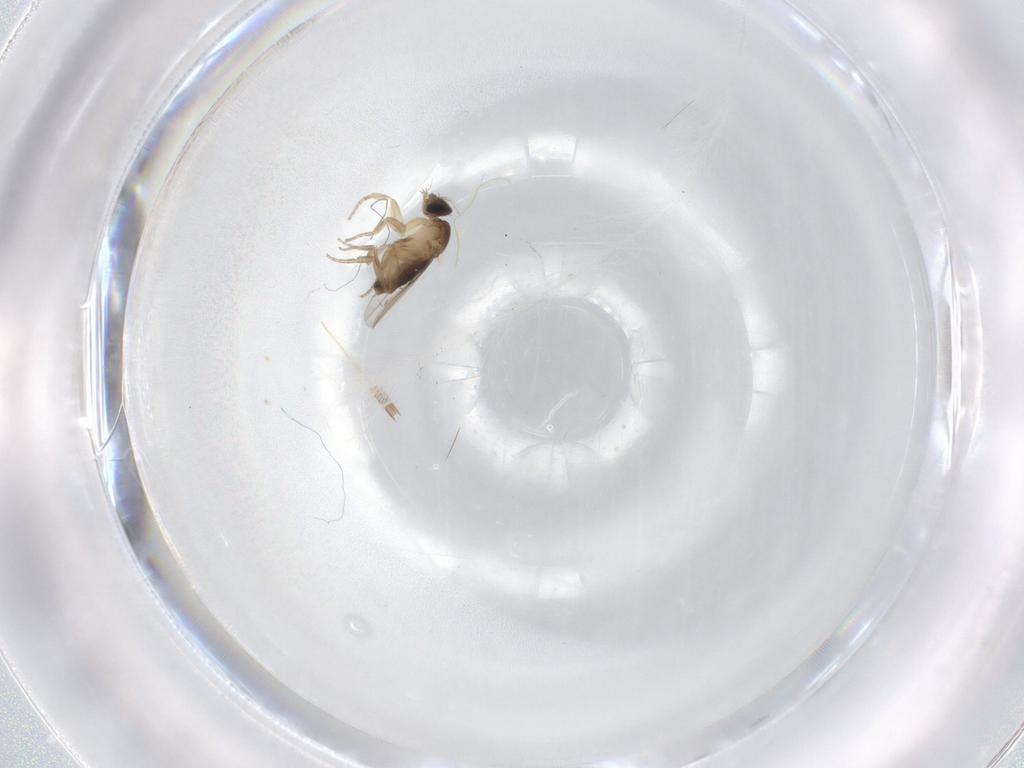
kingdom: Animalia
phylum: Arthropoda
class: Insecta
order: Diptera
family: Phoridae
